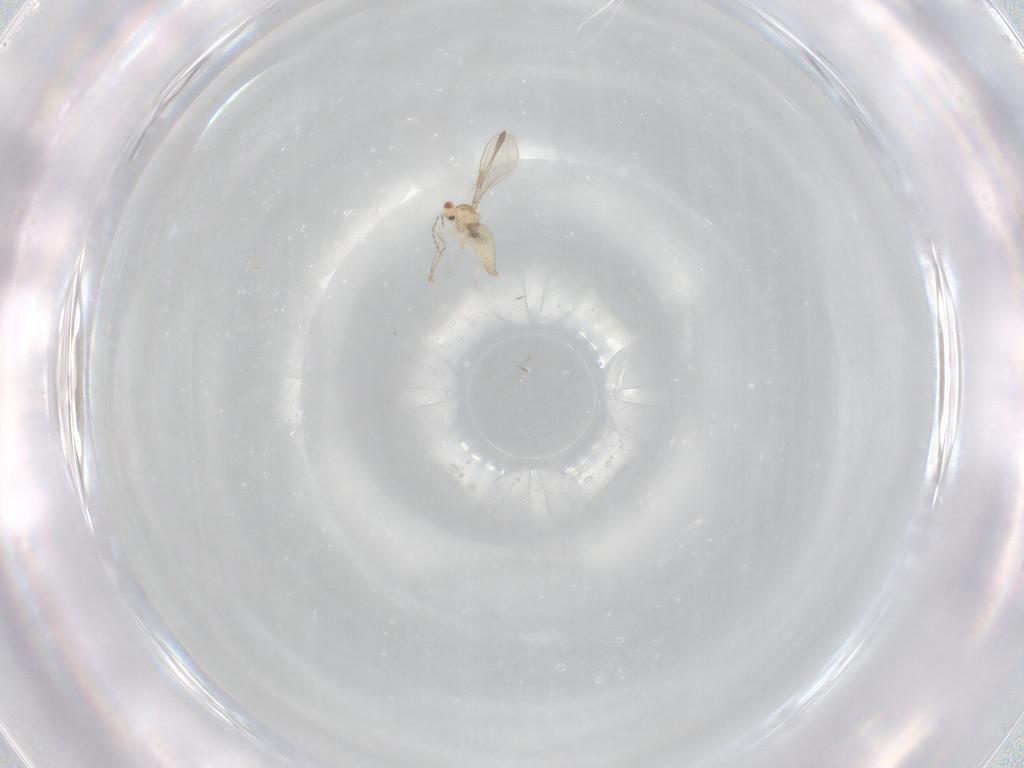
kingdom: Animalia
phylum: Arthropoda
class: Insecta
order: Diptera
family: Cecidomyiidae
